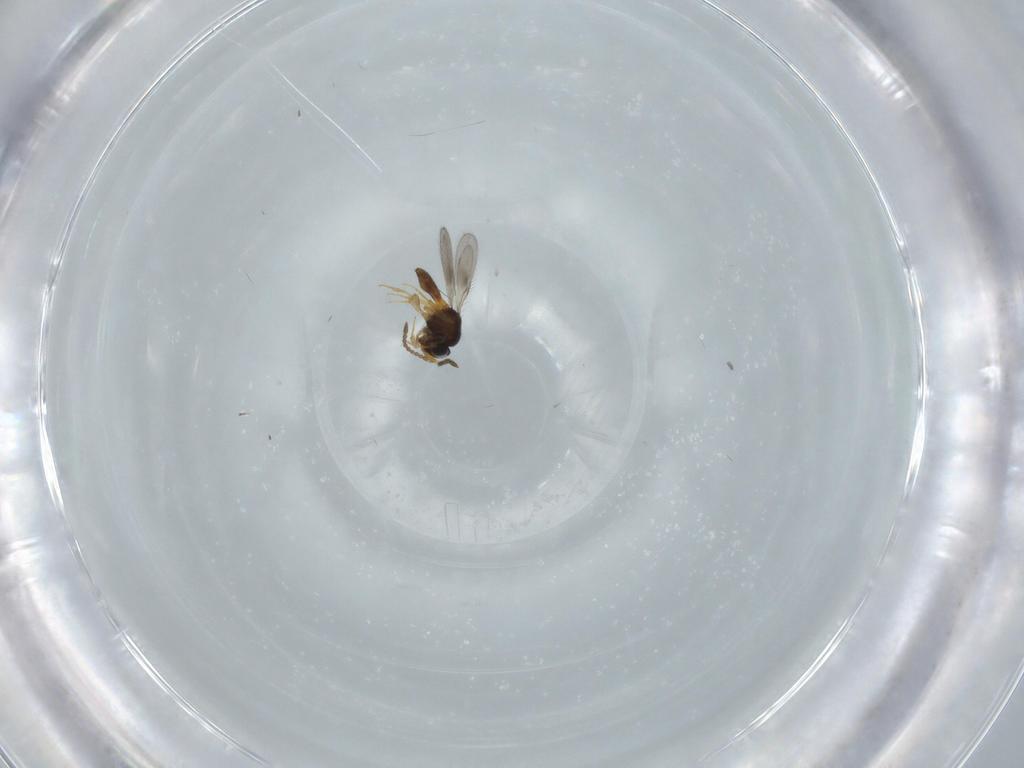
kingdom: Animalia
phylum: Arthropoda
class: Insecta
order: Hymenoptera
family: Scelionidae
